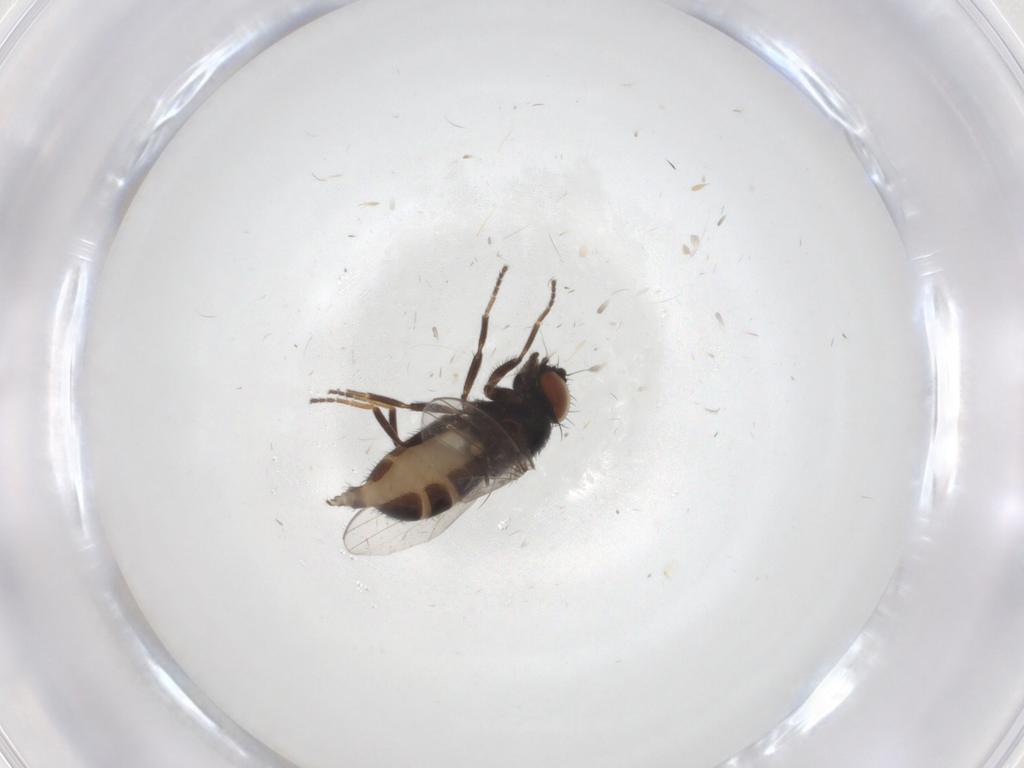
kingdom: Animalia
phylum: Arthropoda
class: Insecta
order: Diptera
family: Milichiidae
